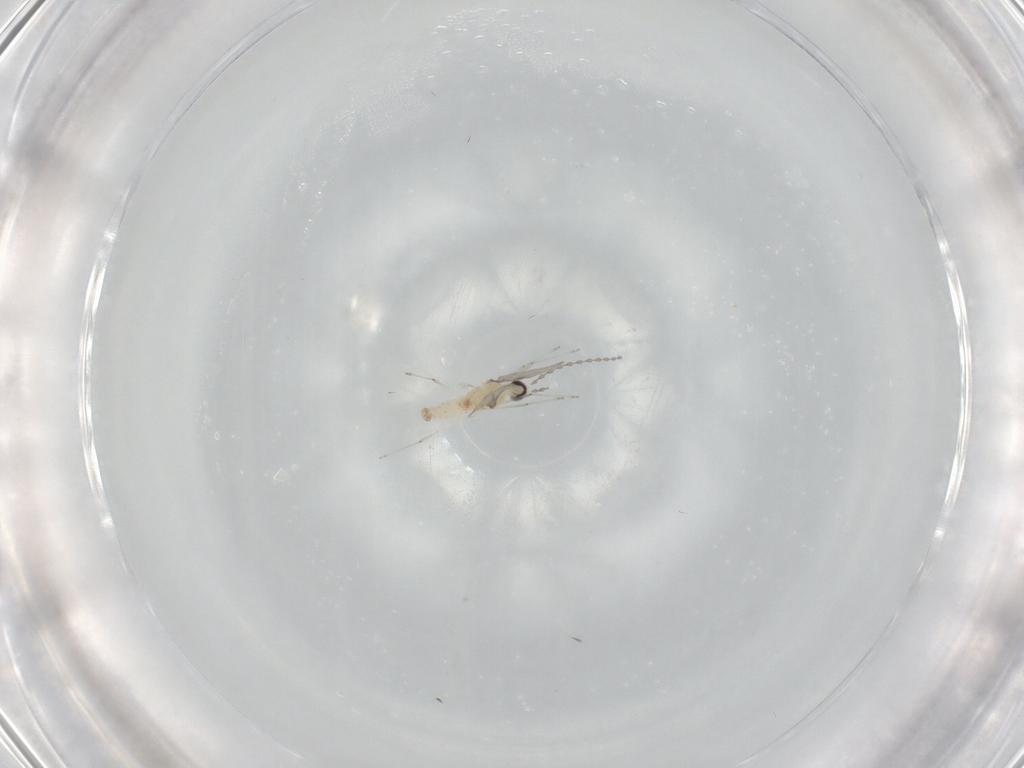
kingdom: Animalia
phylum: Arthropoda
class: Insecta
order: Diptera
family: Cecidomyiidae
